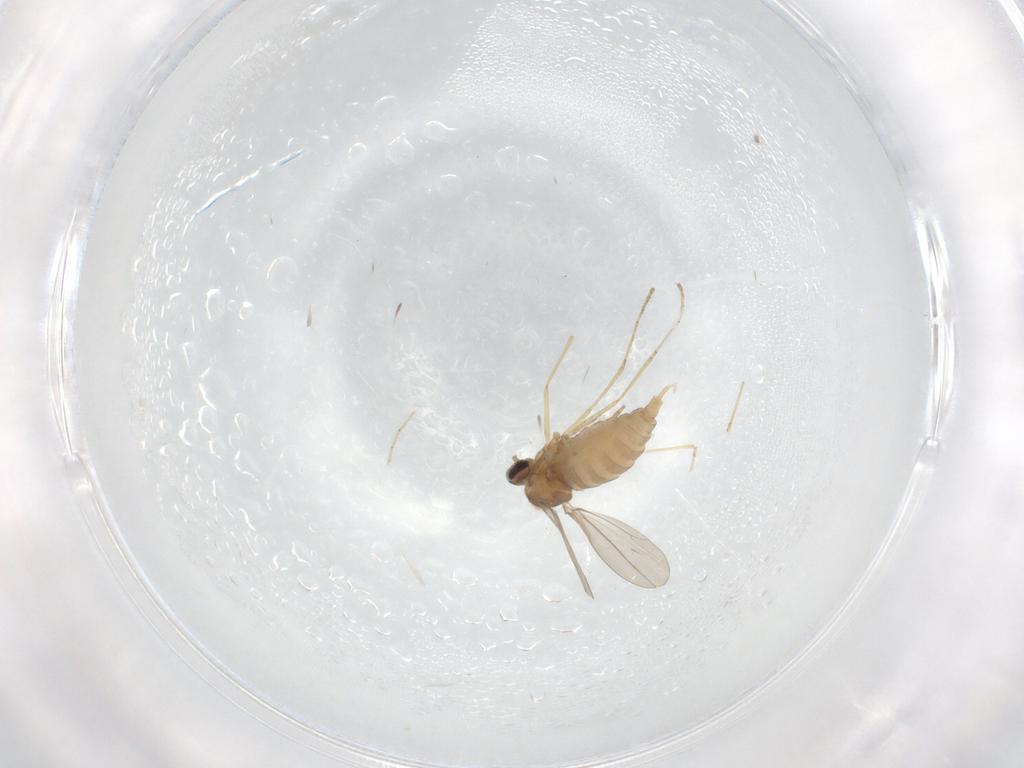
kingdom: Animalia
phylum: Arthropoda
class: Insecta
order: Diptera
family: Cecidomyiidae
